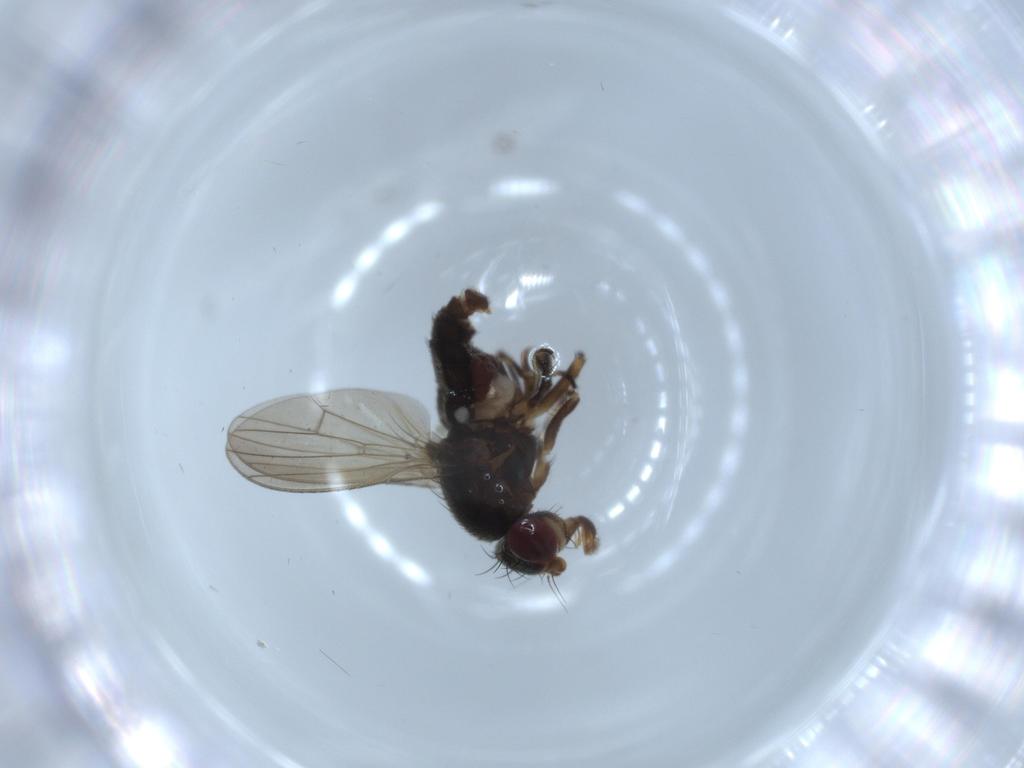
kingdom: Animalia
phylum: Arthropoda
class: Insecta
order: Diptera
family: Heleomyzidae
